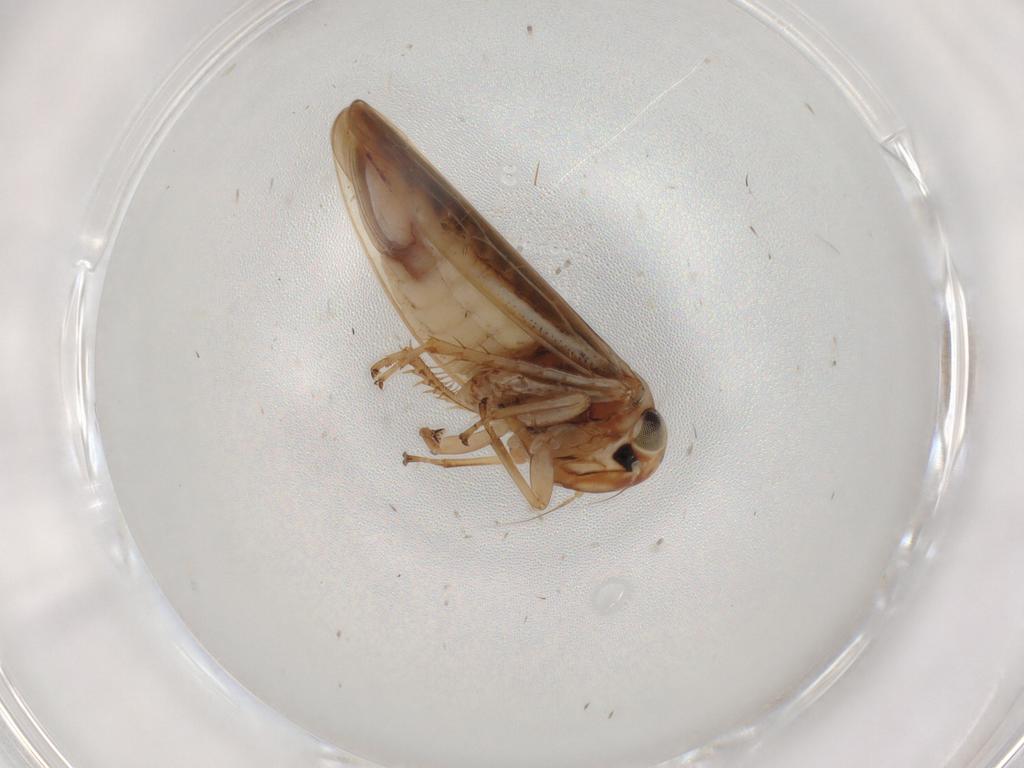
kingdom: Animalia
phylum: Arthropoda
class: Insecta
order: Hemiptera
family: Cicadellidae
